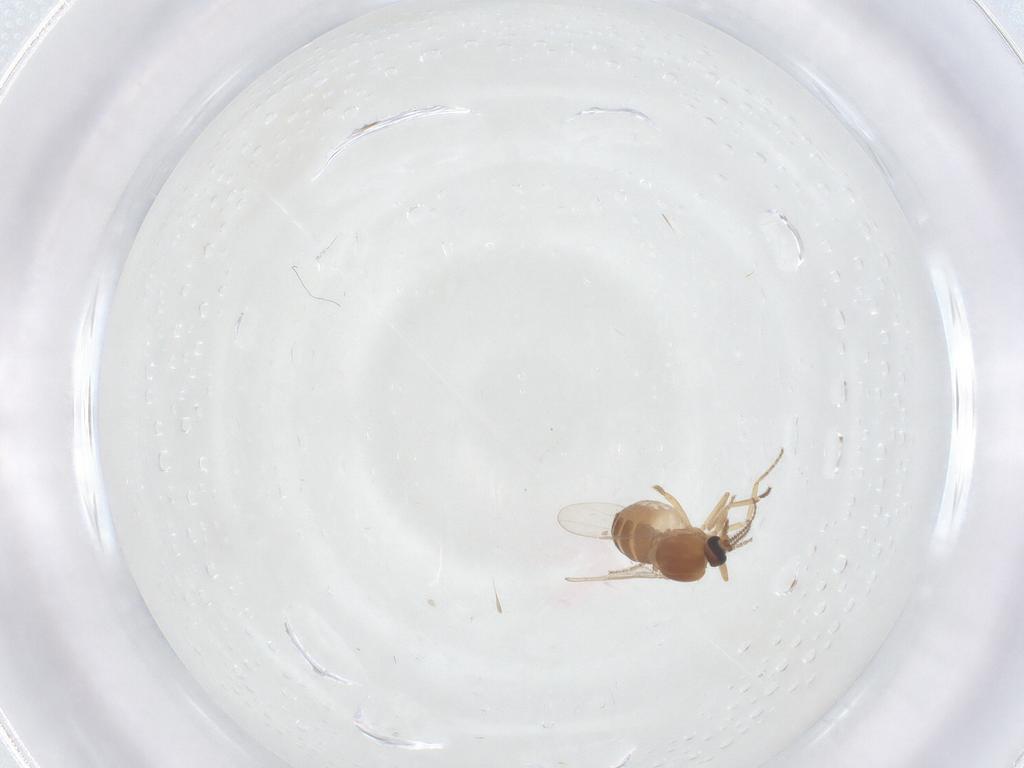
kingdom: Animalia
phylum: Arthropoda
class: Insecta
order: Diptera
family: Ceratopogonidae
